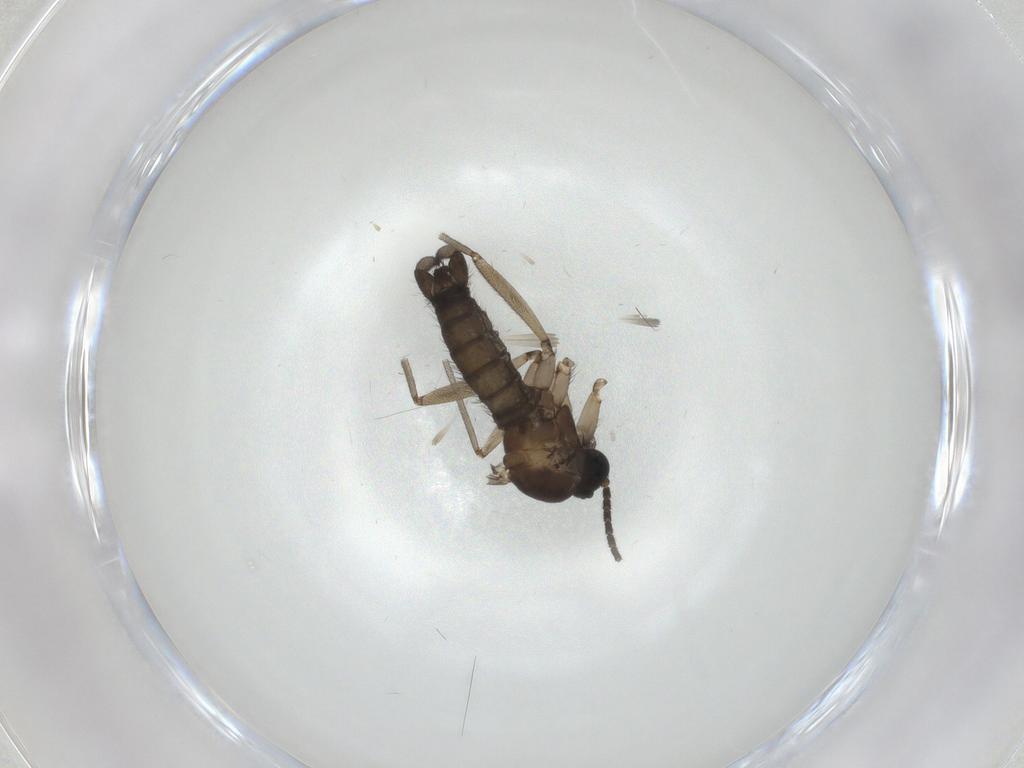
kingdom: Animalia
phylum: Arthropoda
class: Insecta
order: Diptera
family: Sciaridae
